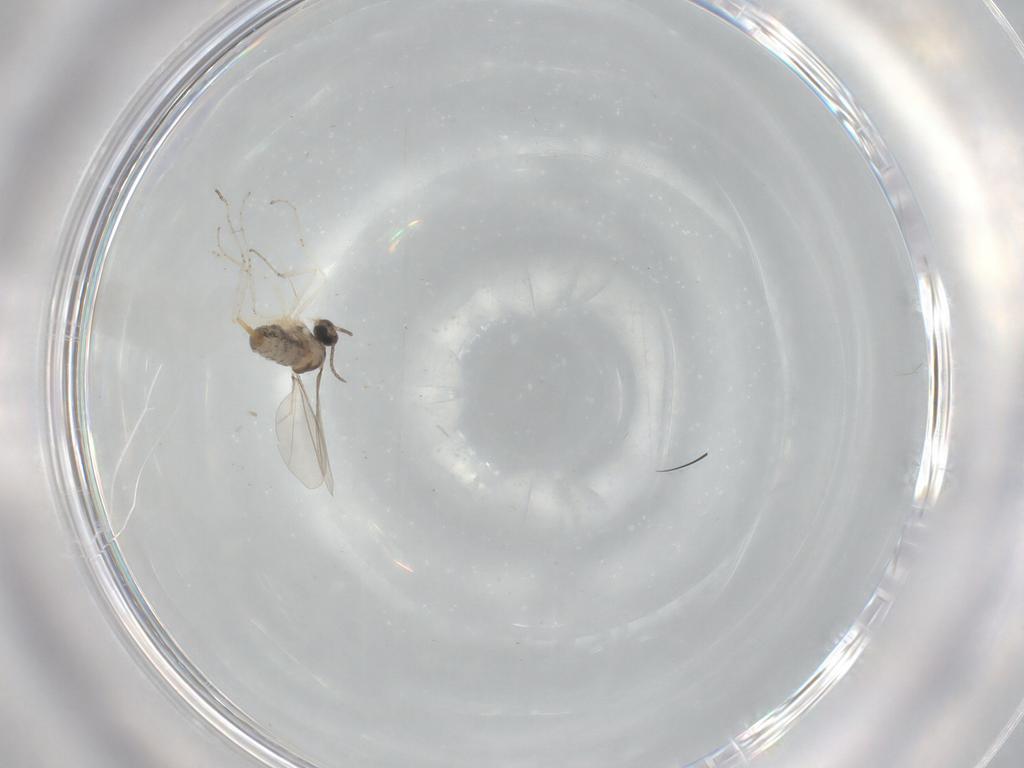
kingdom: Animalia
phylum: Arthropoda
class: Insecta
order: Diptera
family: Cecidomyiidae
